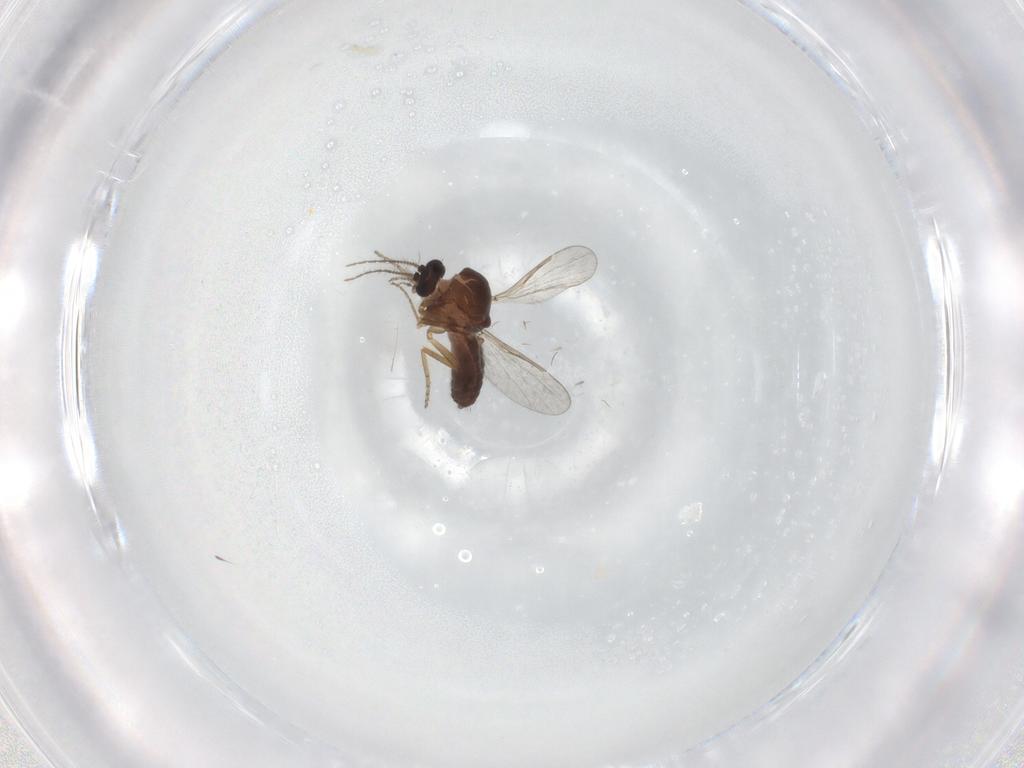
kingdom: Animalia
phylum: Arthropoda
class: Insecta
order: Diptera
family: Ceratopogonidae
